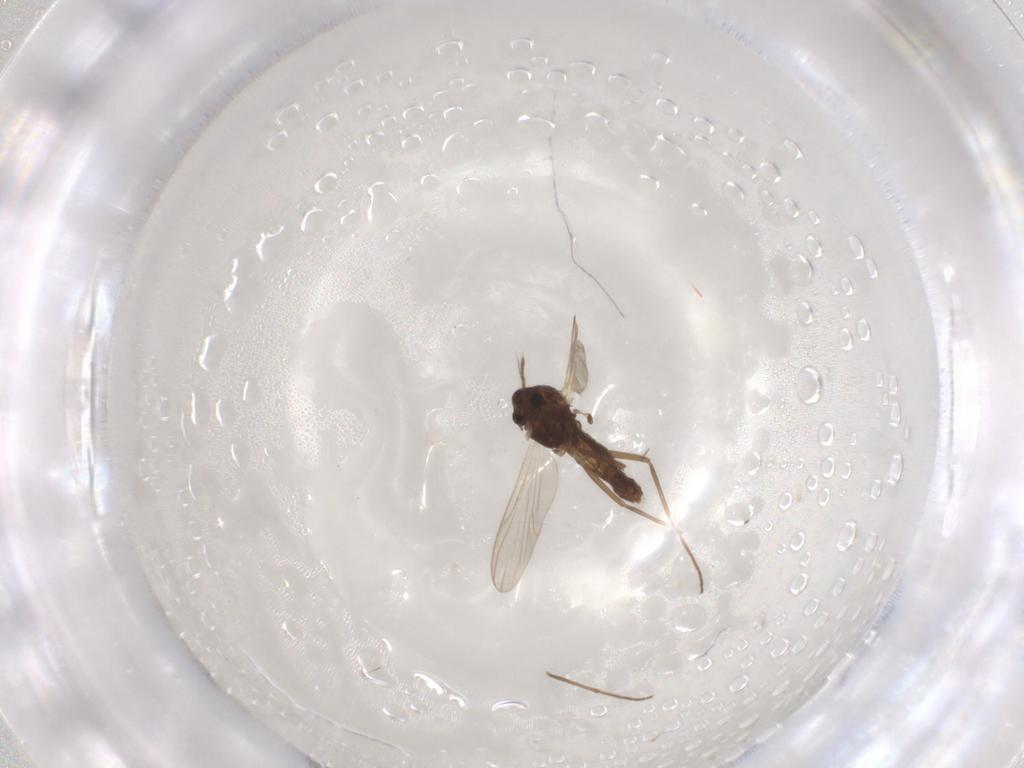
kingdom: Animalia
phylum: Arthropoda
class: Insecta
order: Diptera
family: Chironomidae
